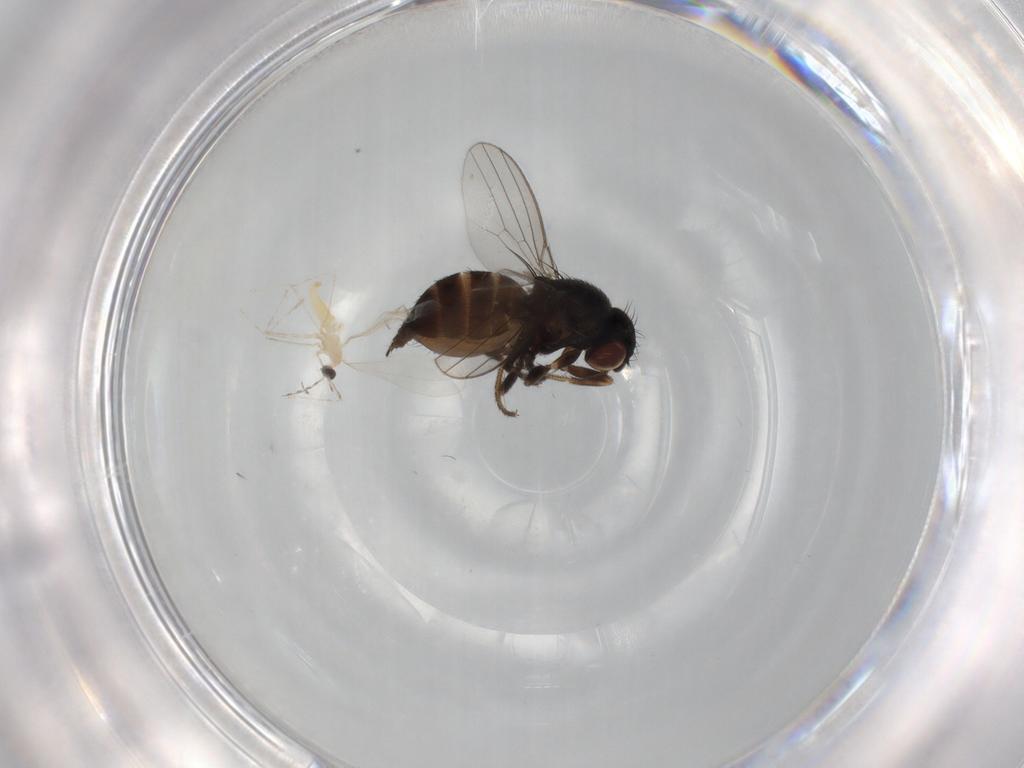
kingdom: Animalia
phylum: Arthropoda
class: Insecta
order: Diptera
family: Milichiidae
